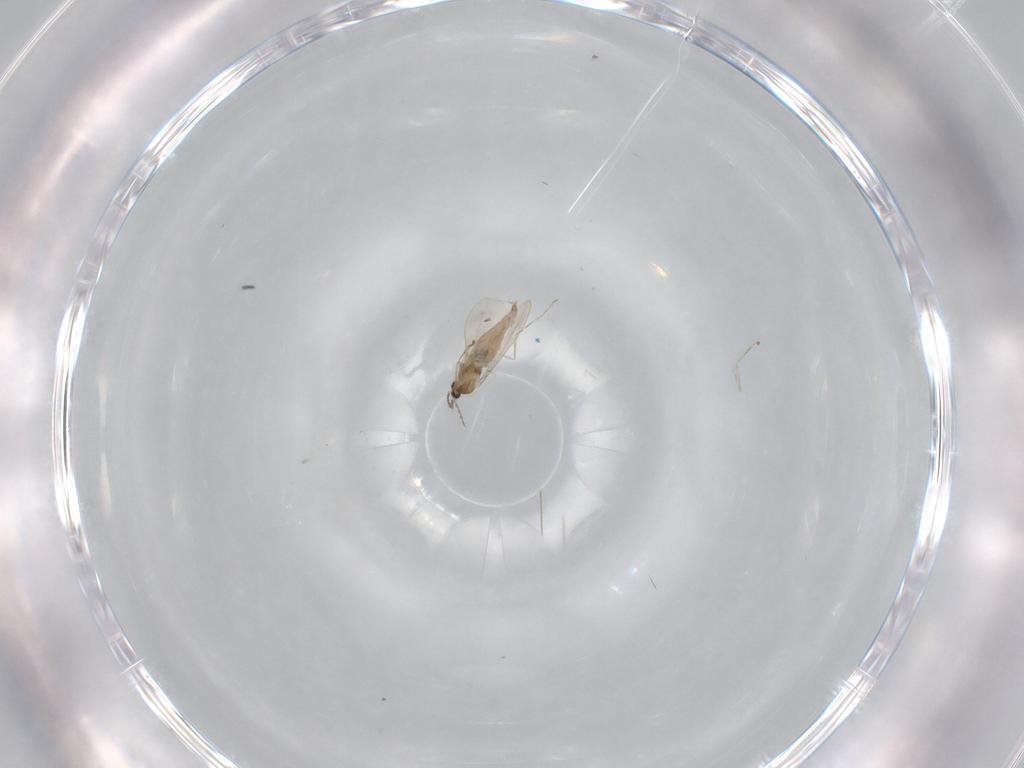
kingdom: Animalia
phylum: Arthropoda
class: Insecta
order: Diptera
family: Cecidomyiidae
